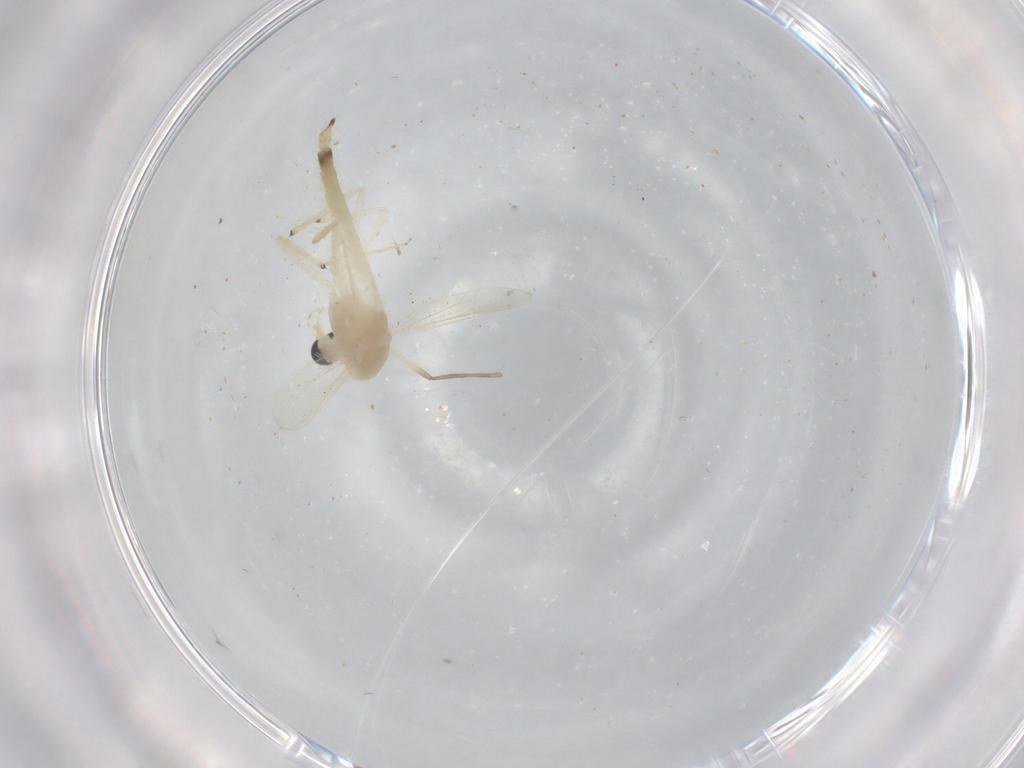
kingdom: Animalia
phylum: Arthropoda
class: Insecta
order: Diptera
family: Chironomidae
